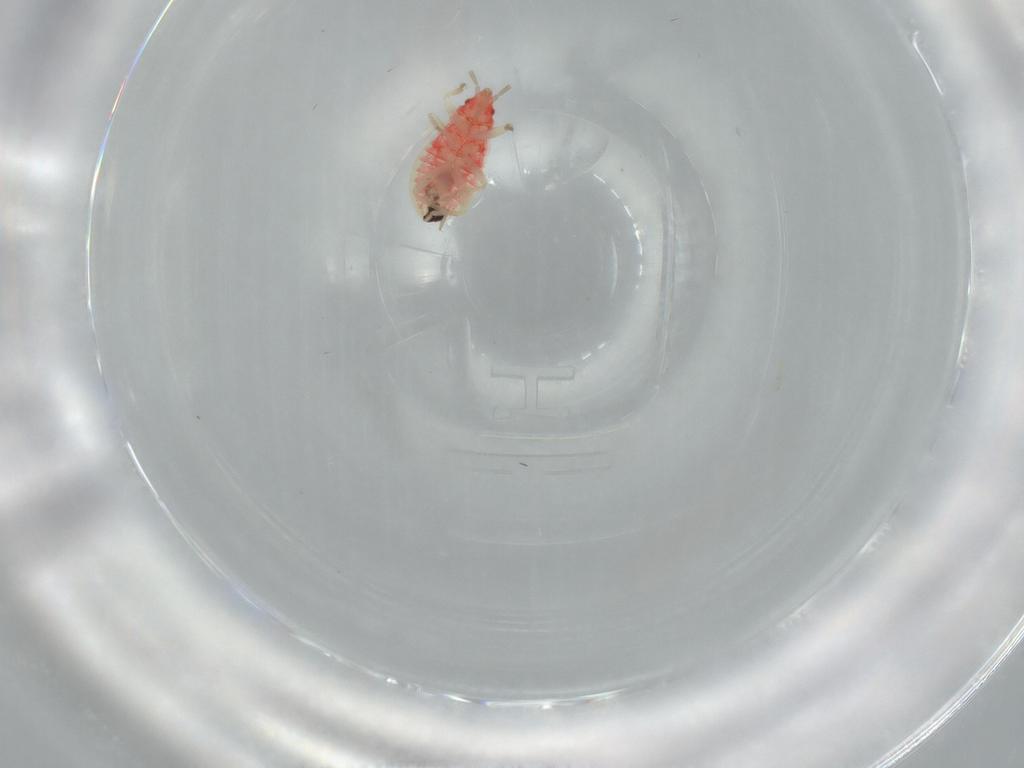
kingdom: Animalia
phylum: Arthropoda
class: Insecta
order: Hemiptera
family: Anthocoridae
